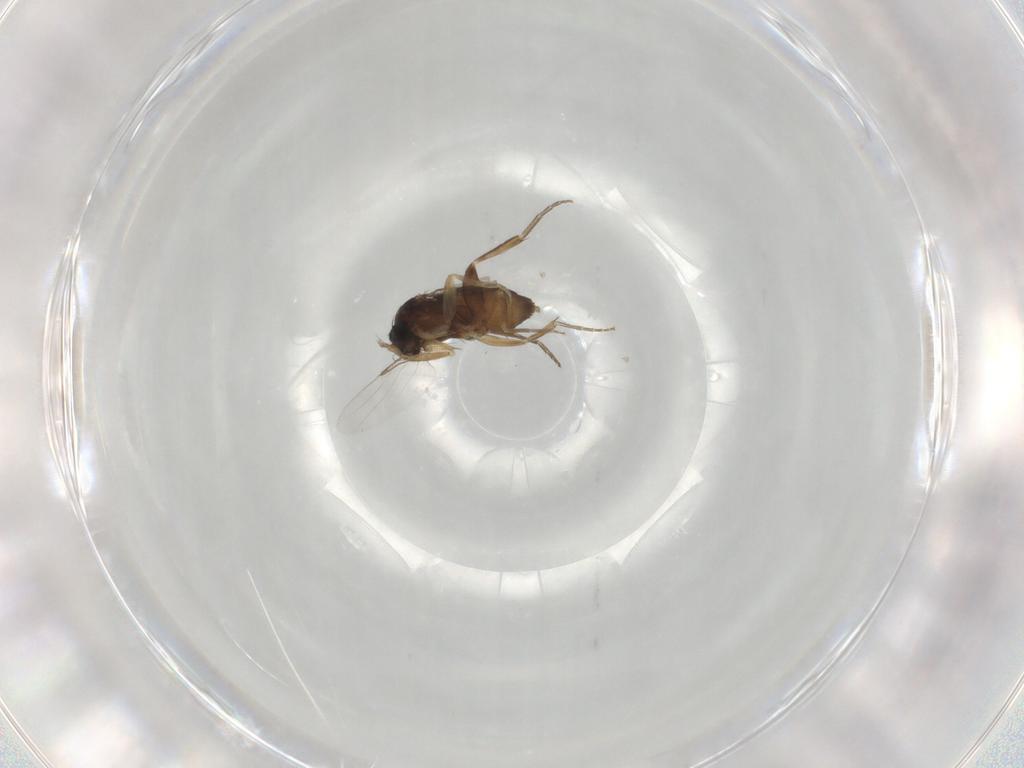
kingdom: Animalia
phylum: Arthropoda
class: Insecta
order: Diptera
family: Phoridae
